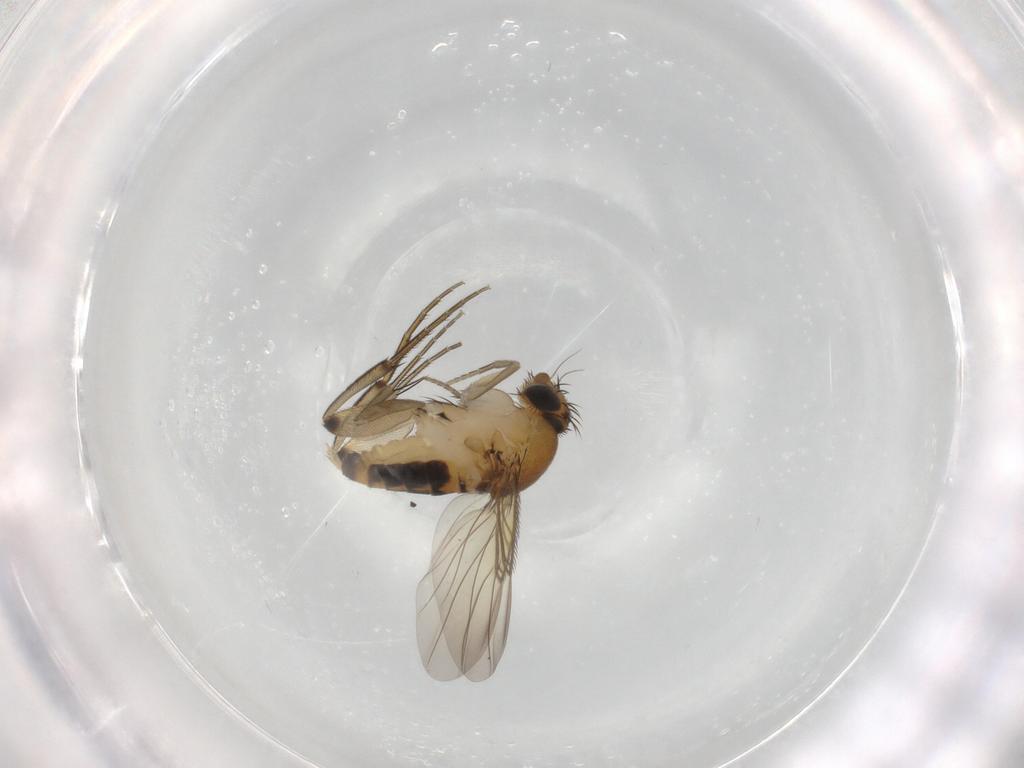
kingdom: Animalia
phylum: Arthropoda
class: Insecta
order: Diptera
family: Phoridae
